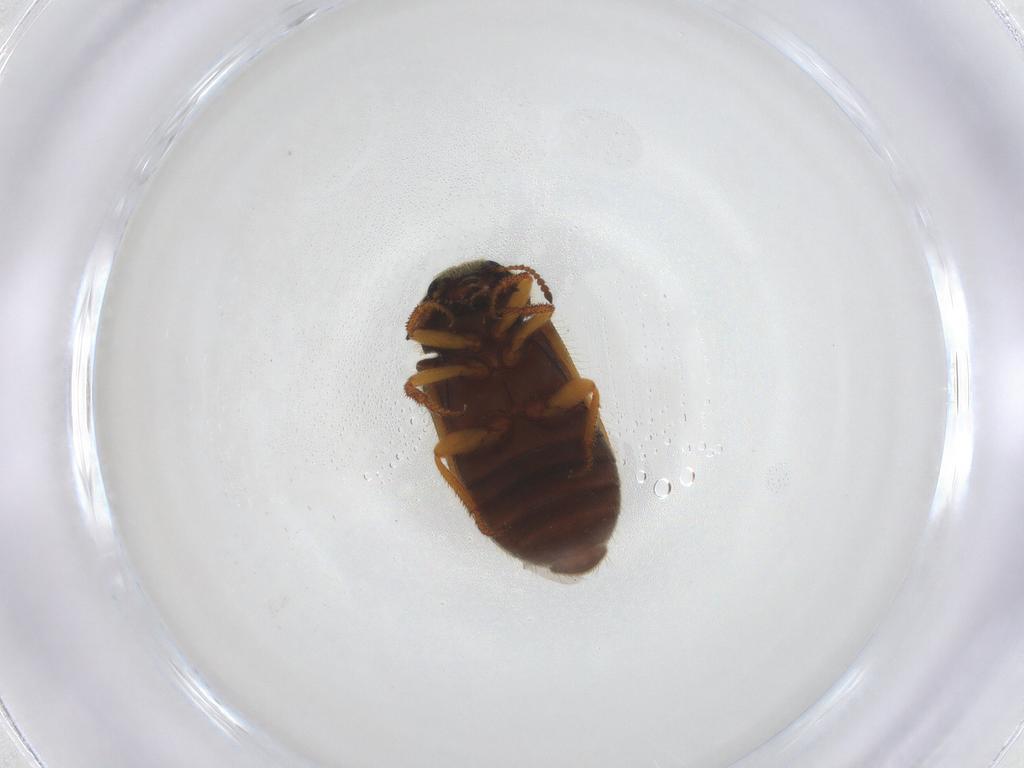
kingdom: Animalia
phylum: Arthropoda
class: Insecta
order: Coleoptera
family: Melyridae
